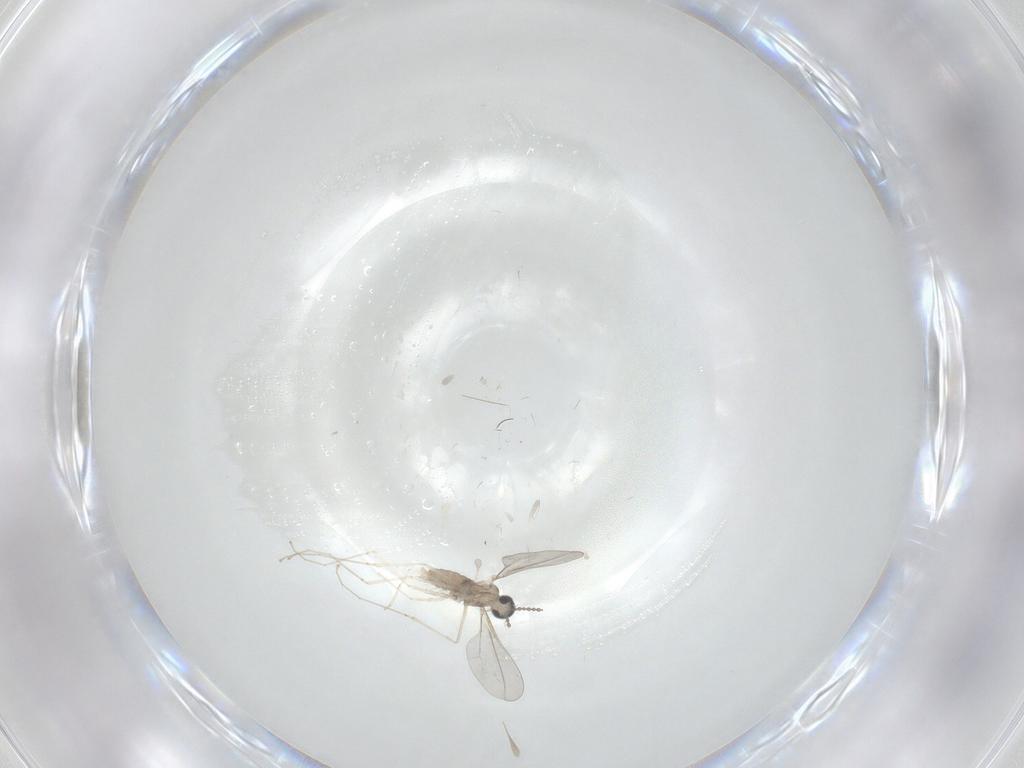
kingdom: Animalia
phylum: Arthropoda
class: Insecta
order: Diptera
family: Cecidomyiidae
